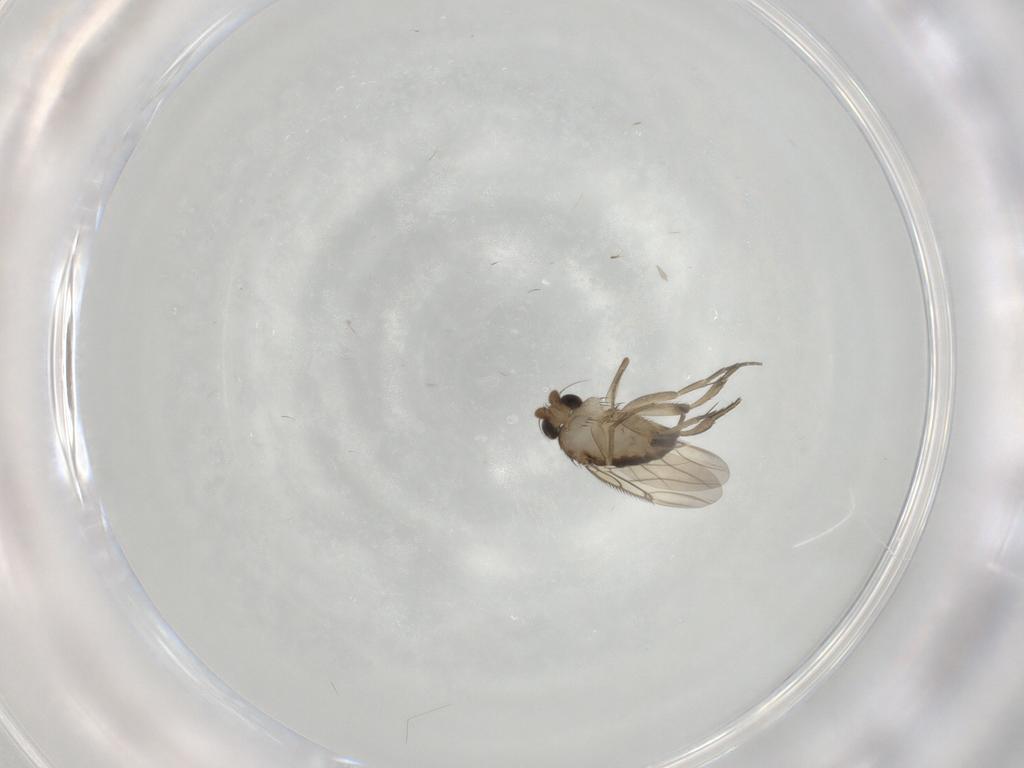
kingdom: Animalia
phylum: Arthropoda
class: Insecta
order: Diptera
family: Phoridae
